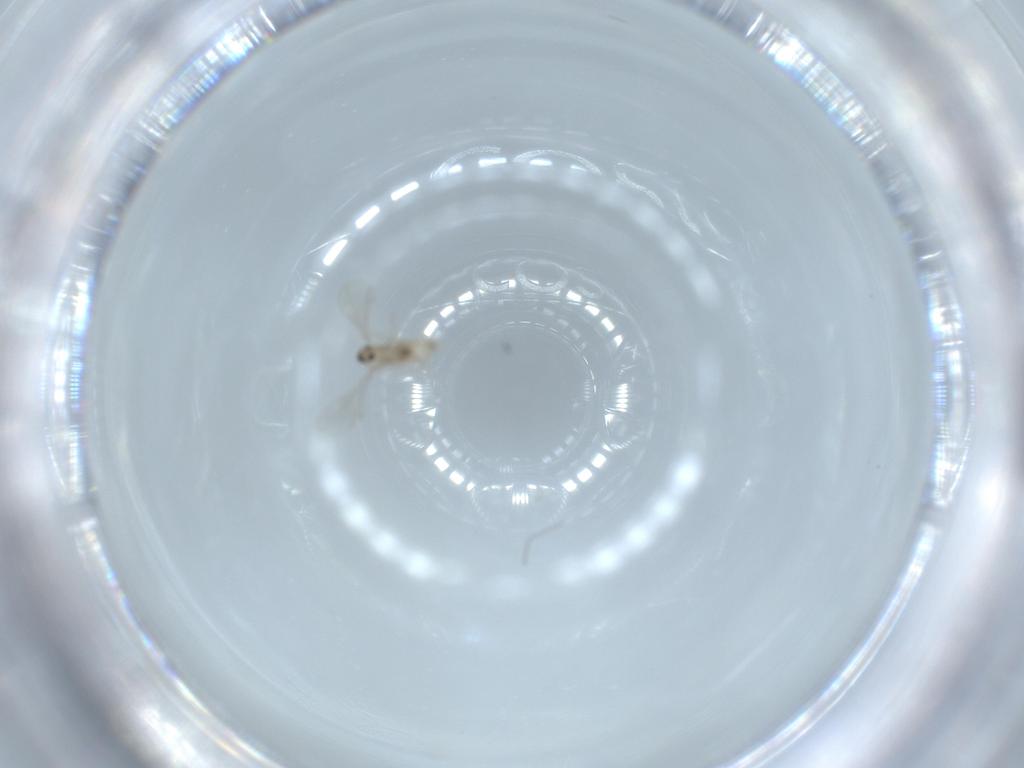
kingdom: Animalia
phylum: Arthropoda
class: Insecta
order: Diptera
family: Cecidomyiidae
